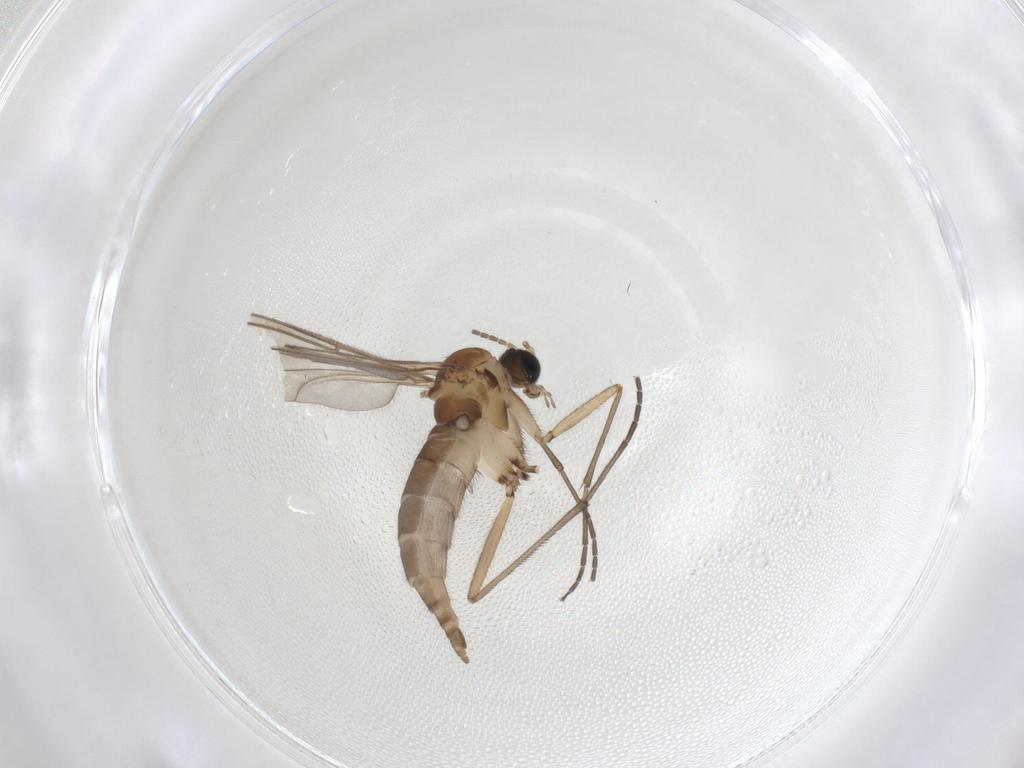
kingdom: Animalia
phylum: Arthropoda
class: Insecta
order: Diptera
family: Sciaridae
